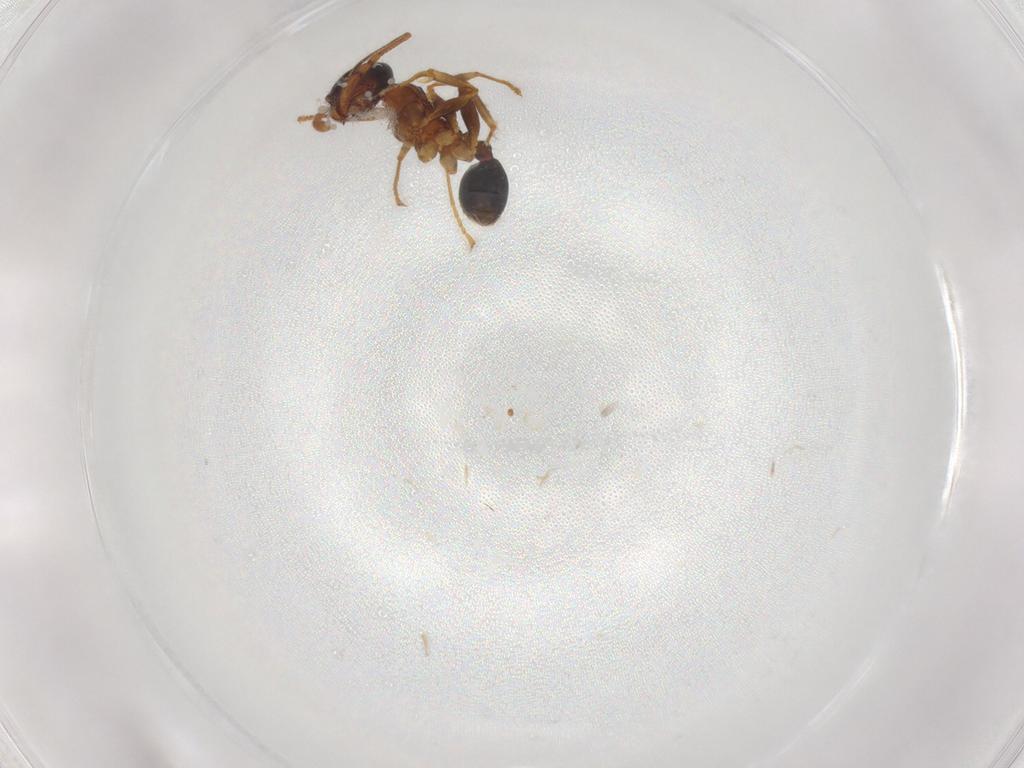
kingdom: Animalia
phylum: Arthropoda
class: Insecta
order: Hymenoptera
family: Formicidae
